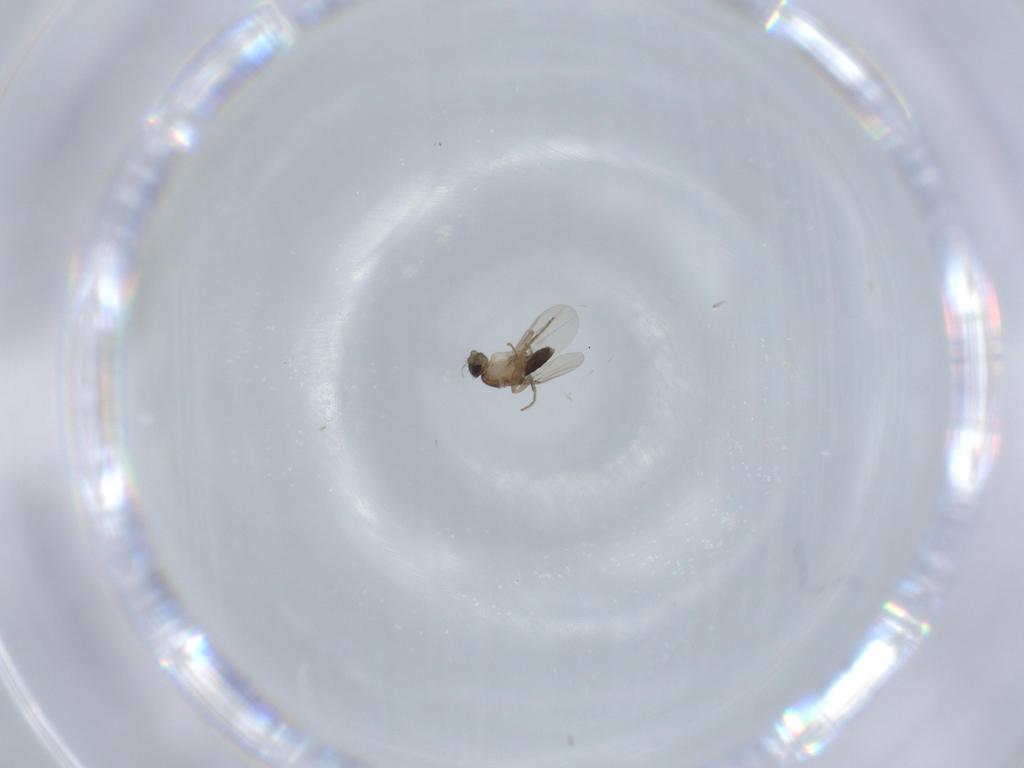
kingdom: Animalia
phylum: Arthropoda
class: Insecta
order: Diptera
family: Phoridae
